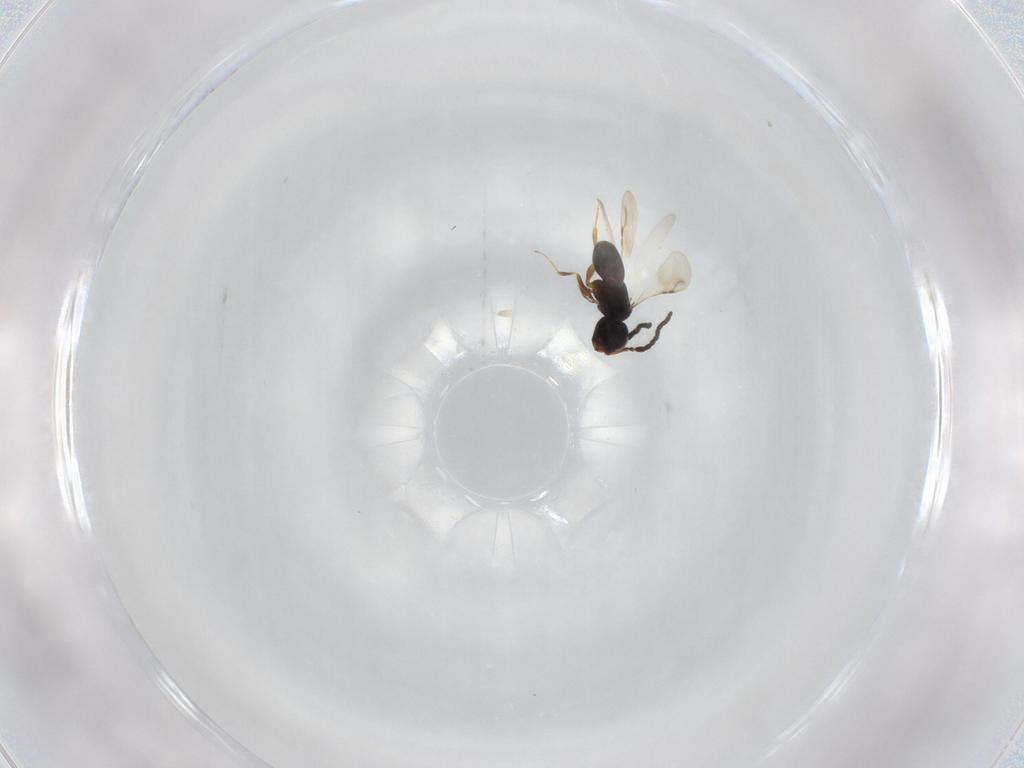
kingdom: Animalia
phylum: Arthropoda
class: Insecta
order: Hymenoptera
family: Ceraphronidae
